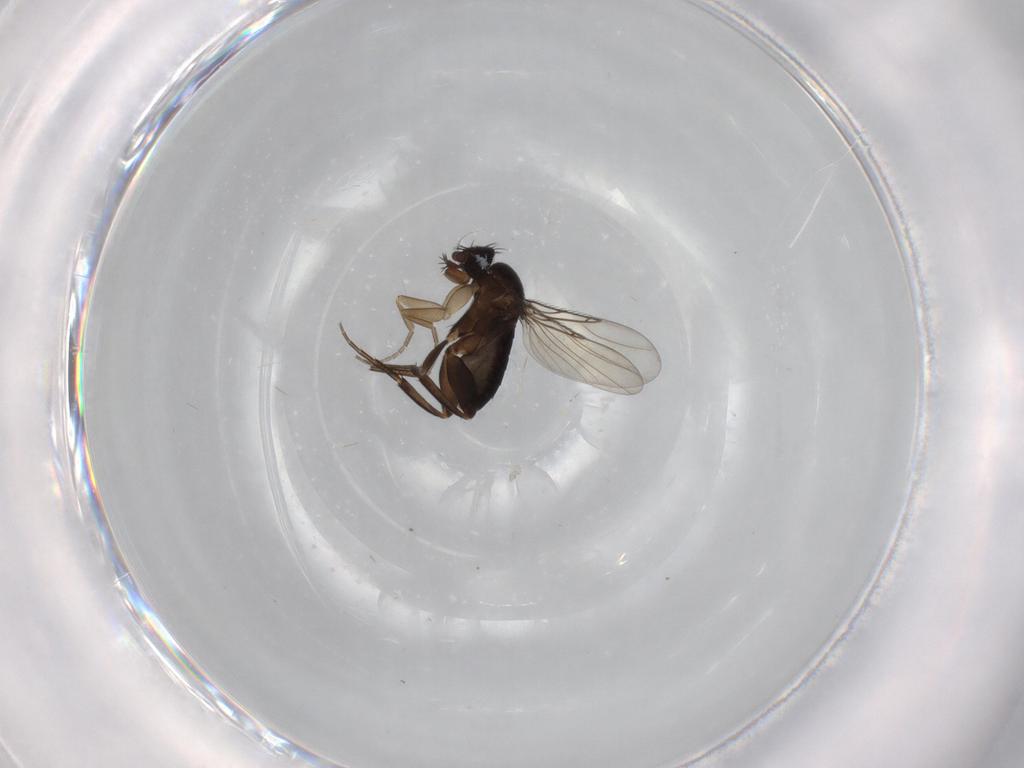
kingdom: Animalia
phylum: Arthropoda
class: Insecta
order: Diptera
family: Phoridae
